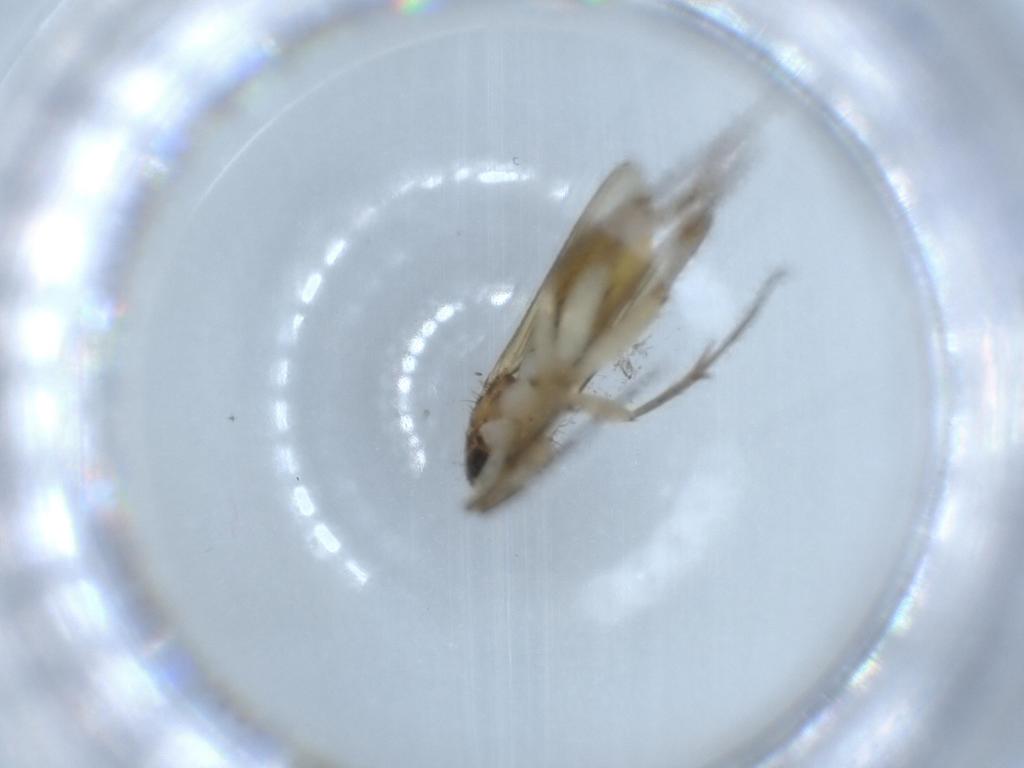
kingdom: Animalia
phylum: Arthropoda
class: Insecta
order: Diptera
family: Mycetophilidae
